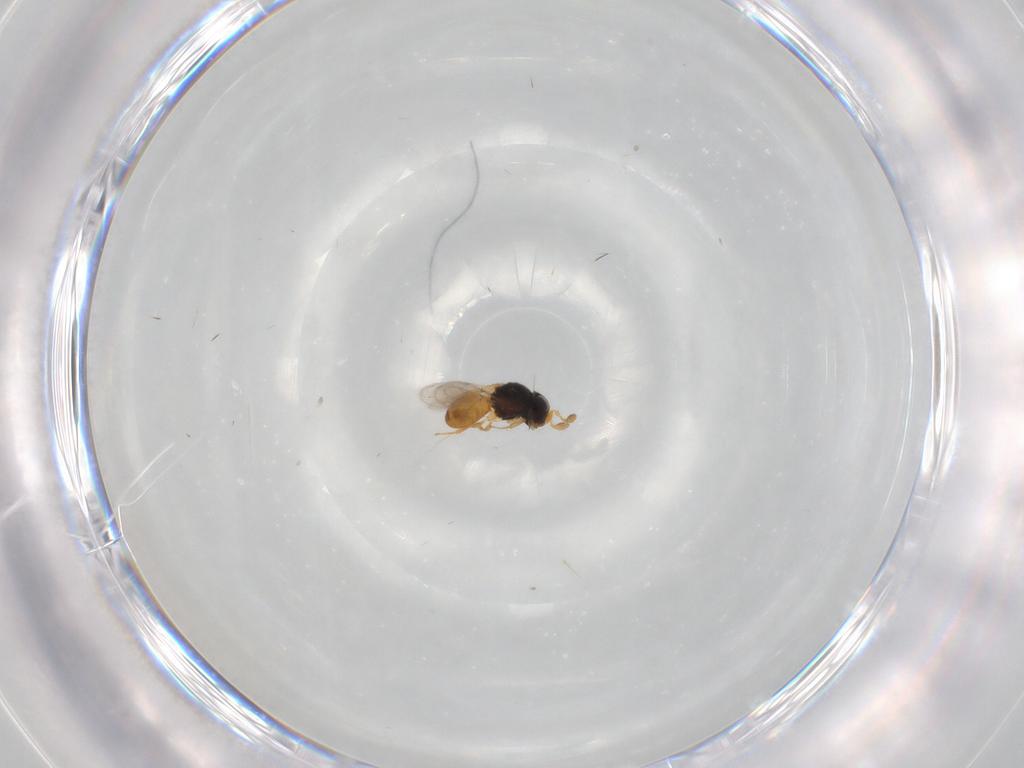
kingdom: Animalia
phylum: Arthropoda
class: Insecta
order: Hymenoptera
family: Scelionidae
